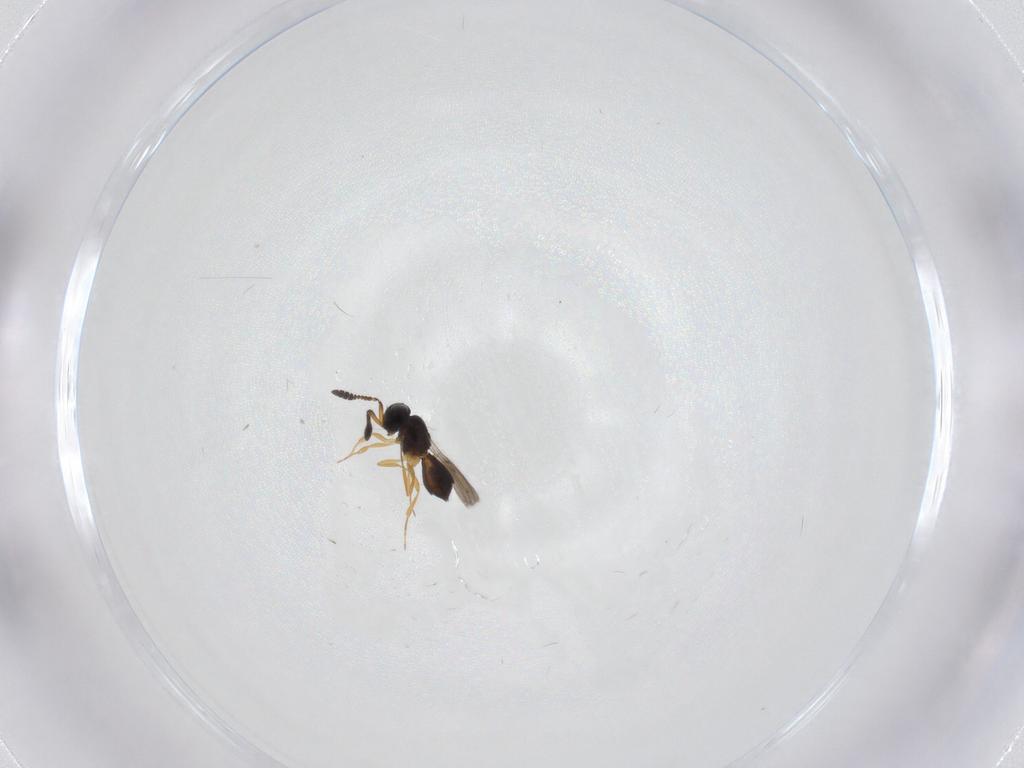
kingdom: Animalia
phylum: Arthropoda
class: Insecta
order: Hymenoptera
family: Scelionidae
